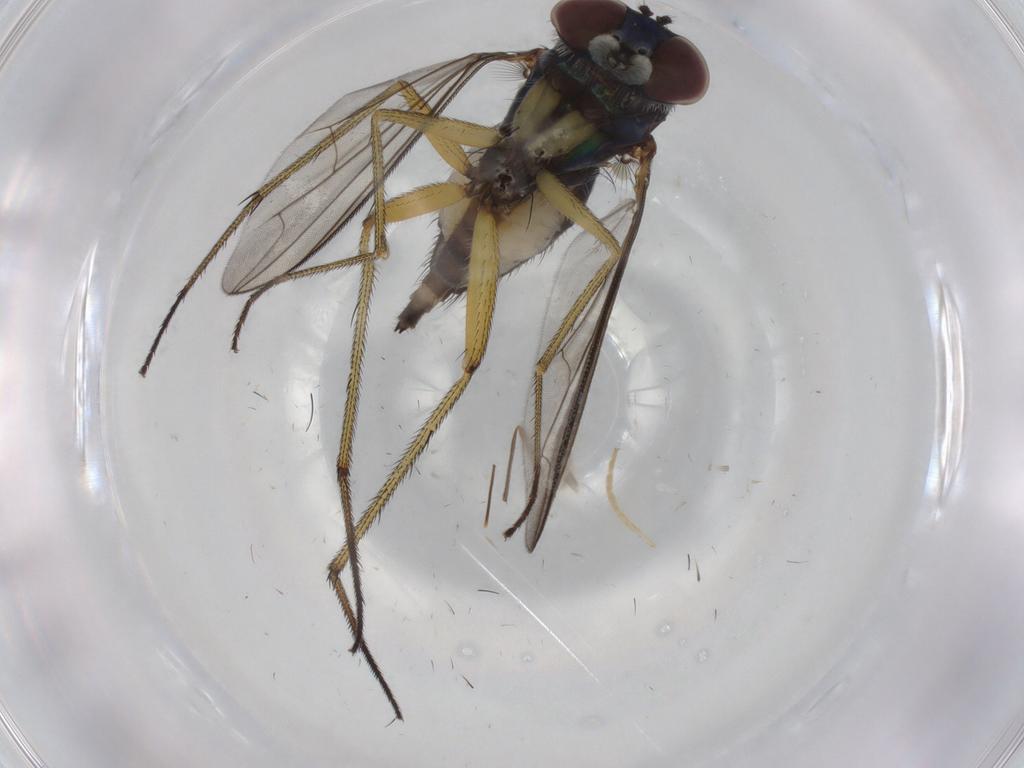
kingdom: Animalia
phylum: Arthropoda
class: Insecta
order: Diptera
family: Dolichopodidae
